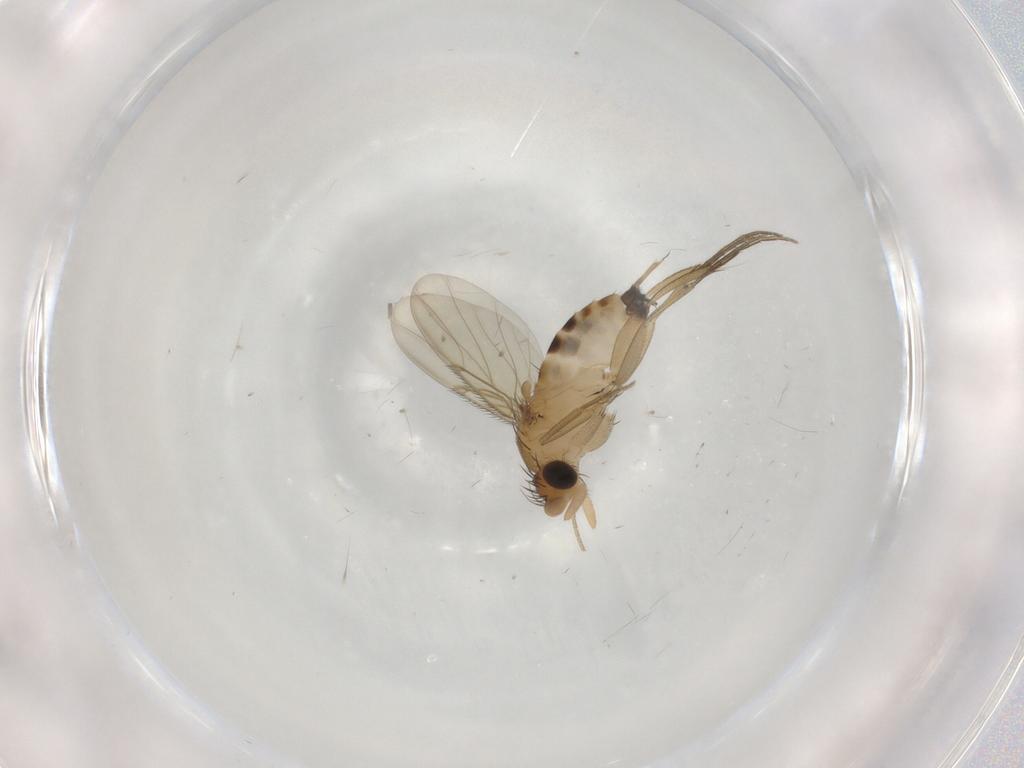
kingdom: Animalia
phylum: Arthropoda
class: Insecta
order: Diptera
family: Phoridae
